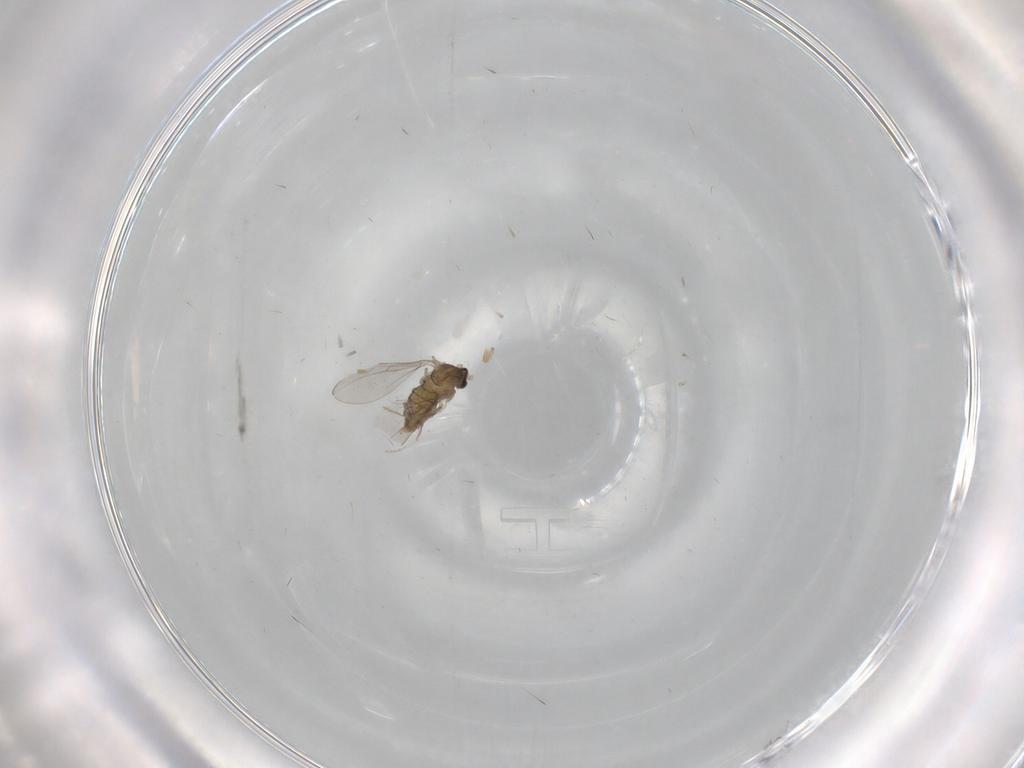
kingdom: Animalia
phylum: Arthropoda
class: Insecta
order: Diptera
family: Cecidomyiidae
